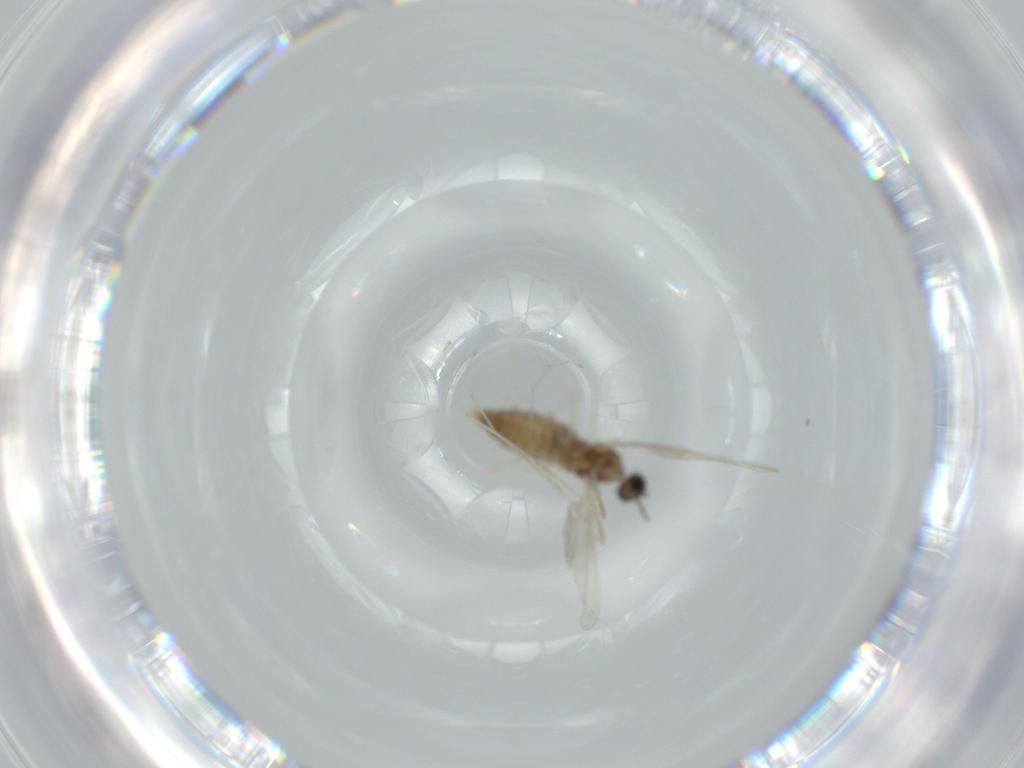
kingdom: Animalia
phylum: Arthropoda
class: Insecta
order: Diptera
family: Cecidomyiidae
